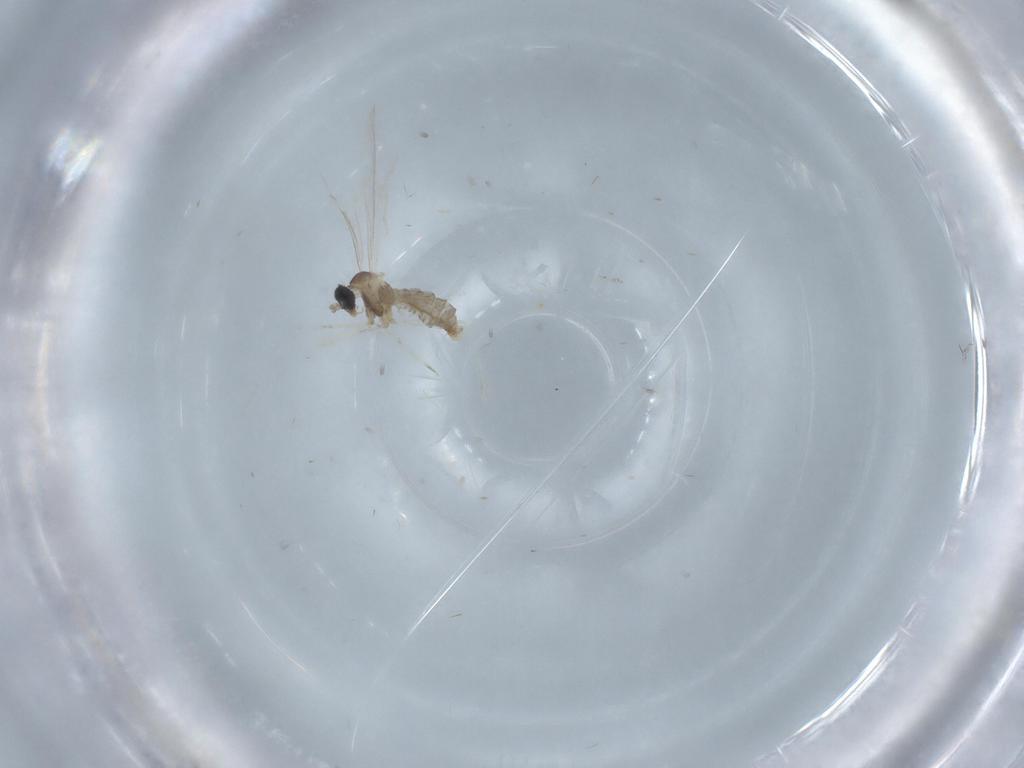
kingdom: Animalia
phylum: Arthropoda
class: Insecta
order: Diptera
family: Cecidomyiidae
